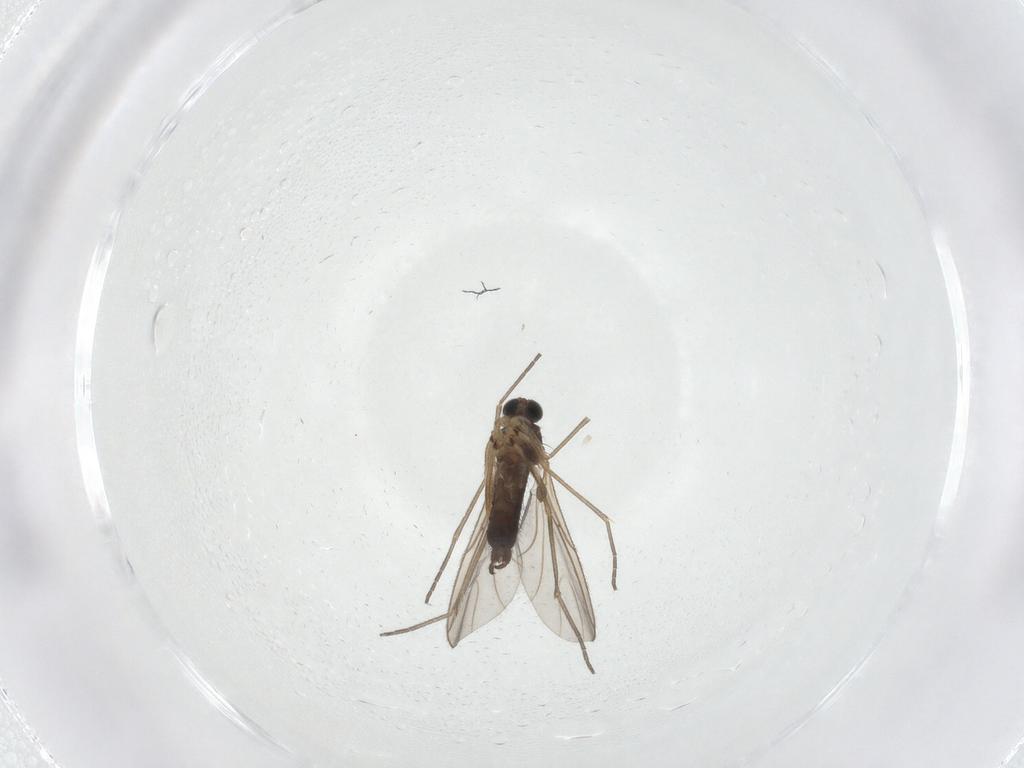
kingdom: Animalia
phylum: Arthropoda
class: Insecta
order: Diptera
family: Sciaridae
